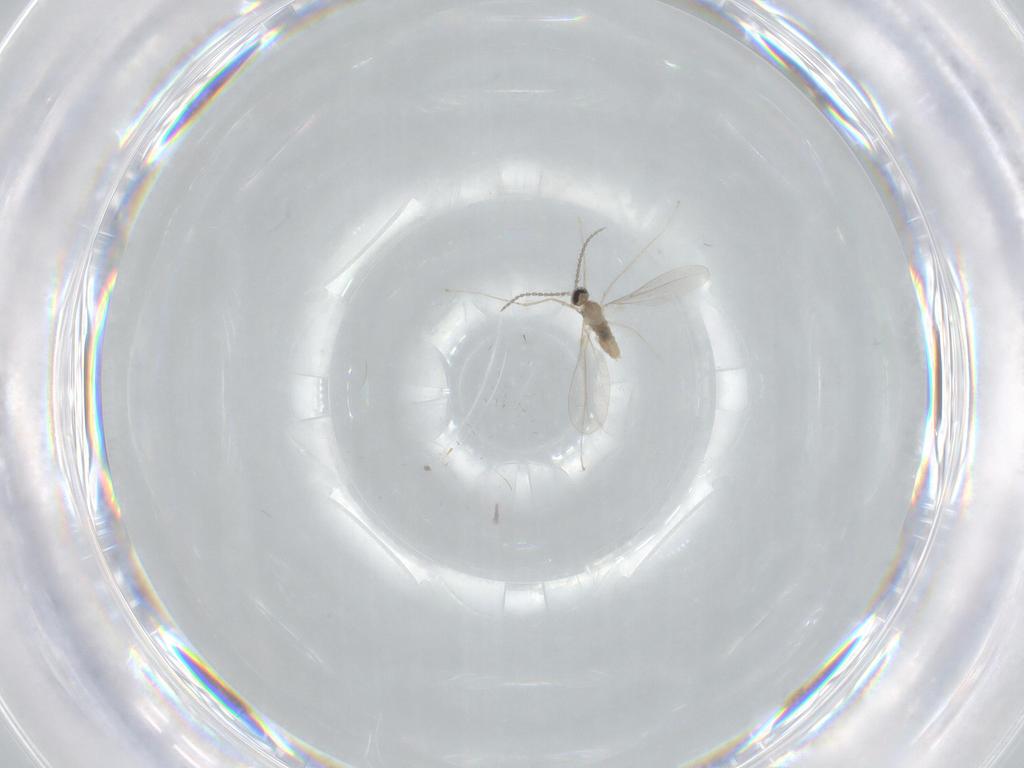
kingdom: Animalia
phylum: Arthropoda
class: Insecta
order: Diptera
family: Cecidomyiidae
